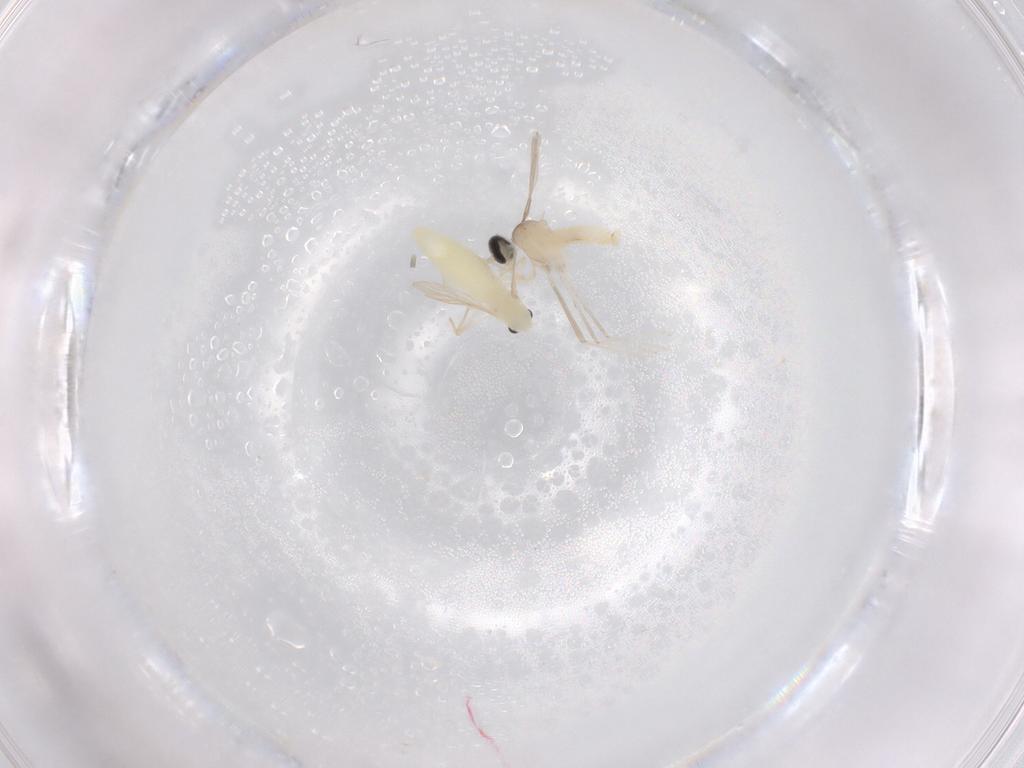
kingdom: Animalia
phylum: Arthropoda
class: Insecta
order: Diptera
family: Chironomidae
